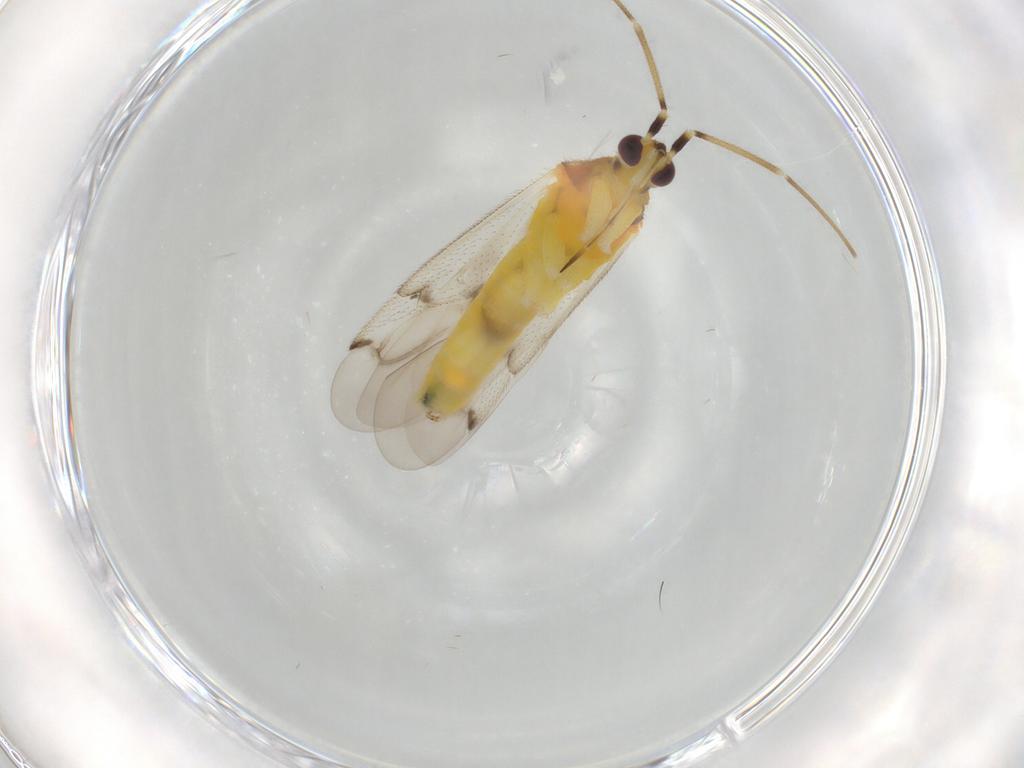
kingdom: Animalia
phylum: Arthropoda
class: Insecta
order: Hemiptera
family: Miridae
